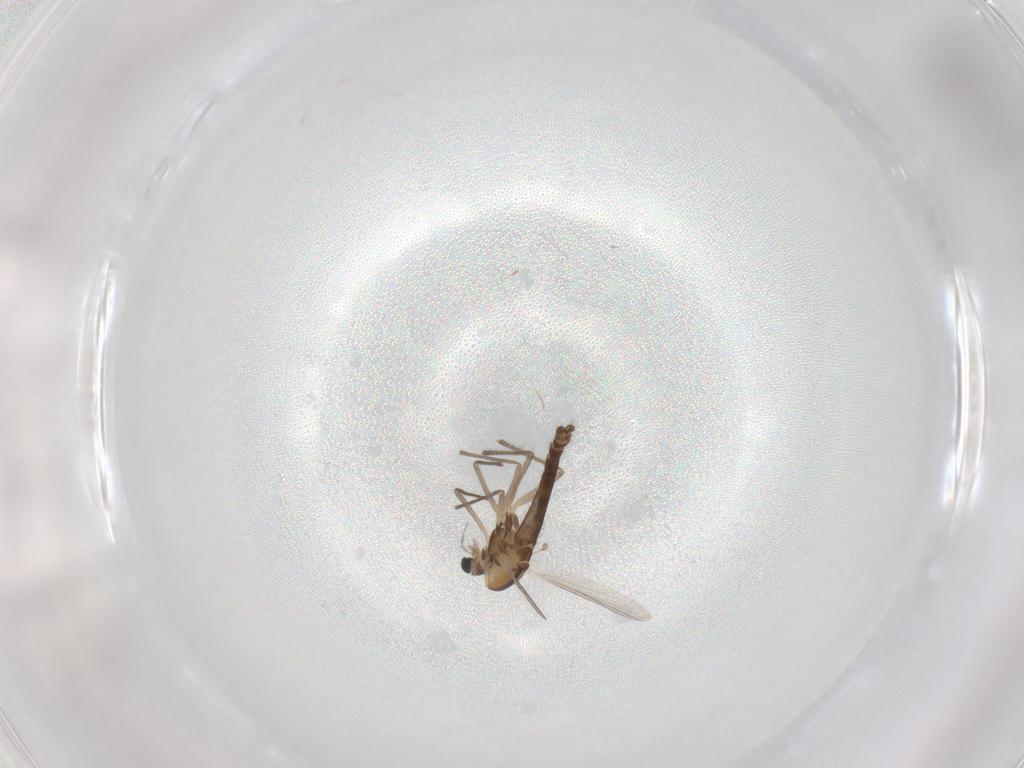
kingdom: Animalia
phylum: Arthropoda
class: Insecta
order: Diptera
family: Chironomidae
